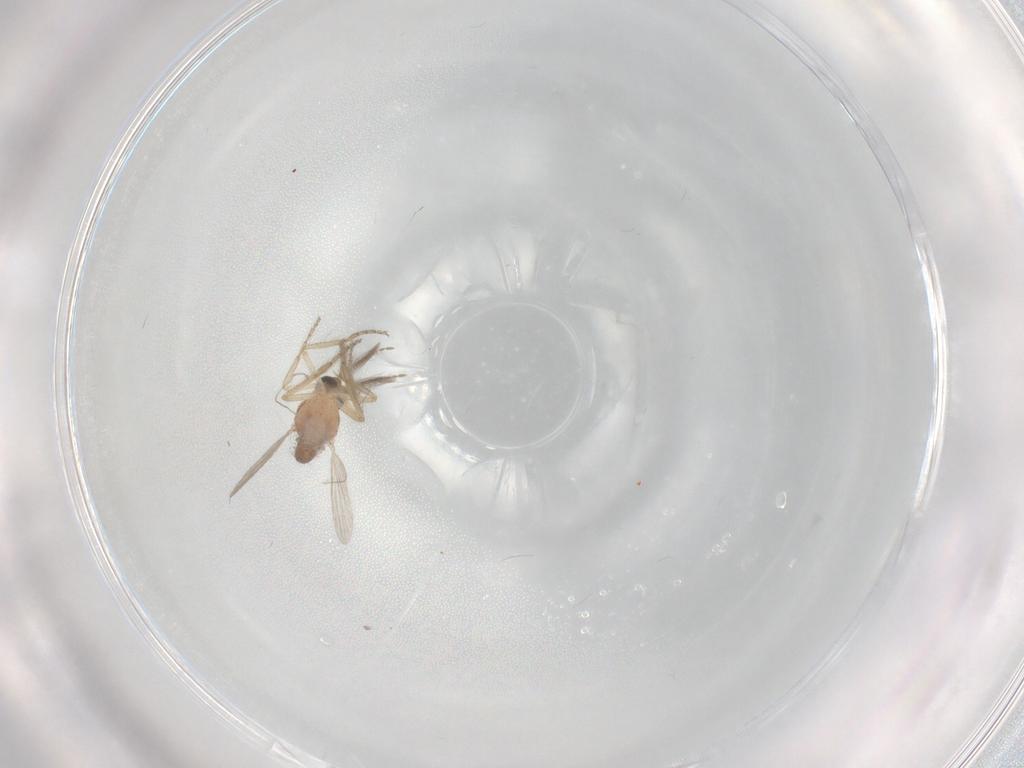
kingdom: Animalia
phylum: Arthropoda
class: Insecta
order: Diptera
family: Ceratopogonidae
